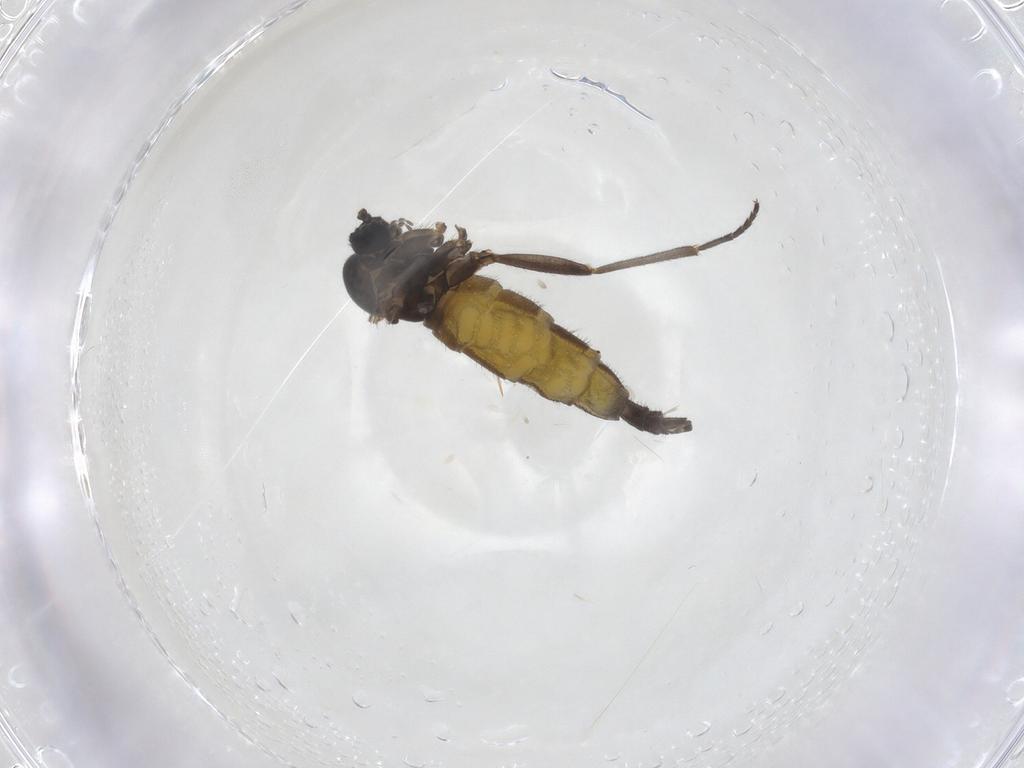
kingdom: Animalia
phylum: Arthropoda
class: Insecta
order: Diptera
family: Sciaridae
